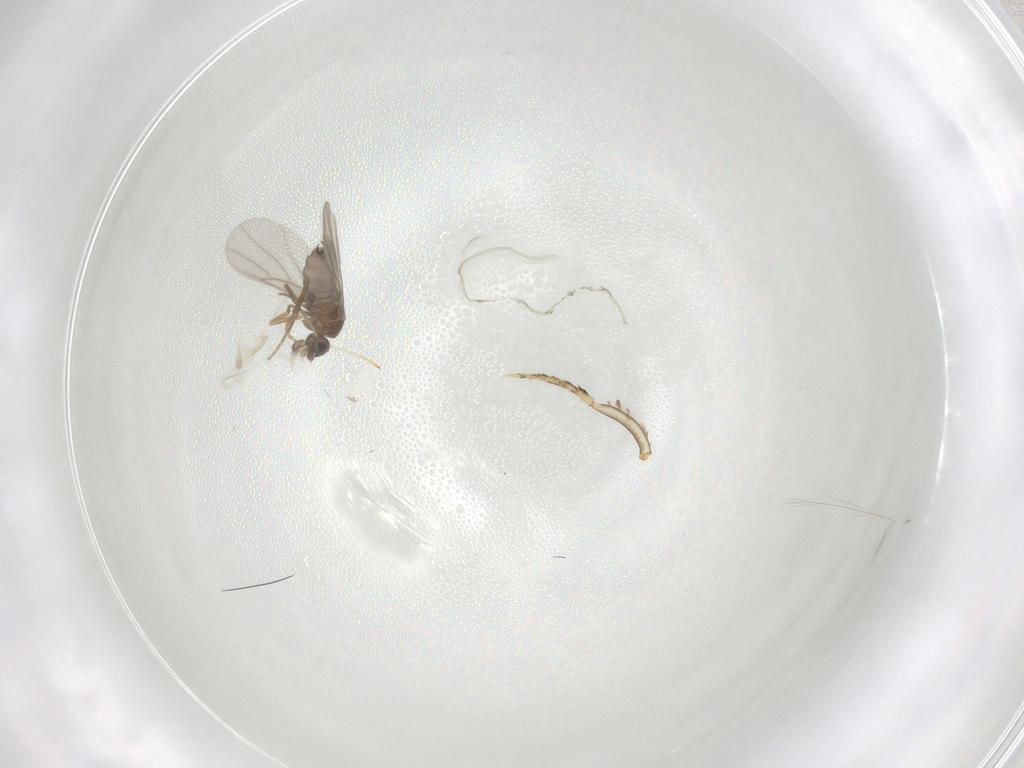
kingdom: Animalia
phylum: Arthropoda
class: Insecta
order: Diptera
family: Phoridae
